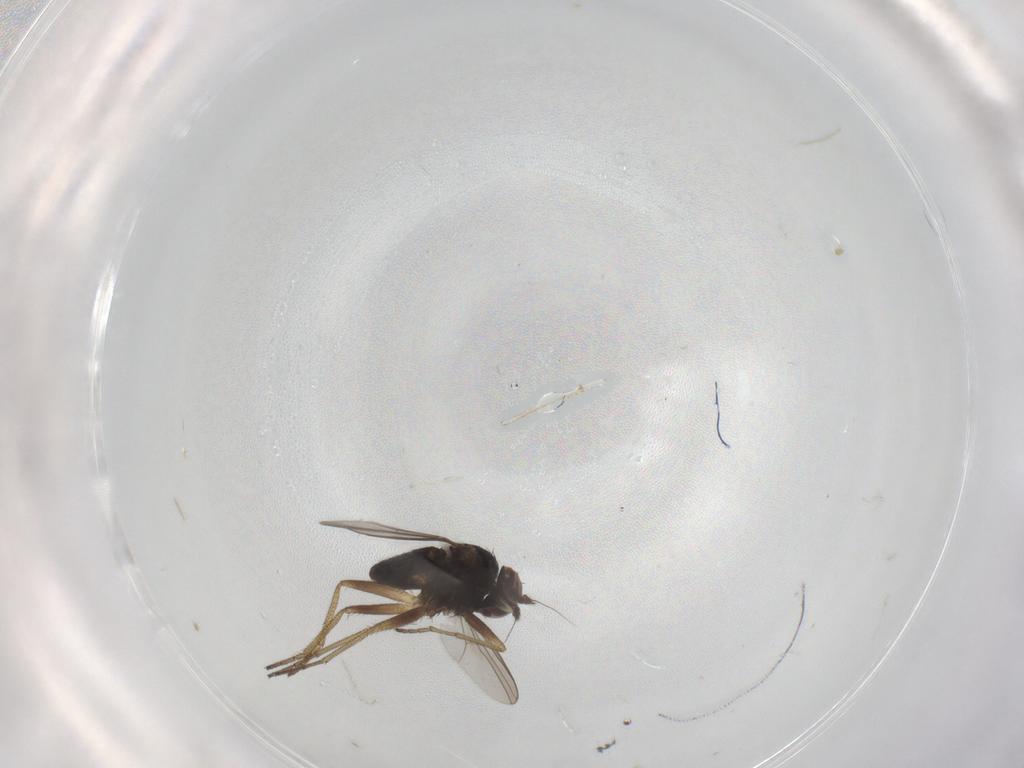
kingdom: Animalia
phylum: Arthropoda
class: Insecta
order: Diptera
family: Dolichopodidae
